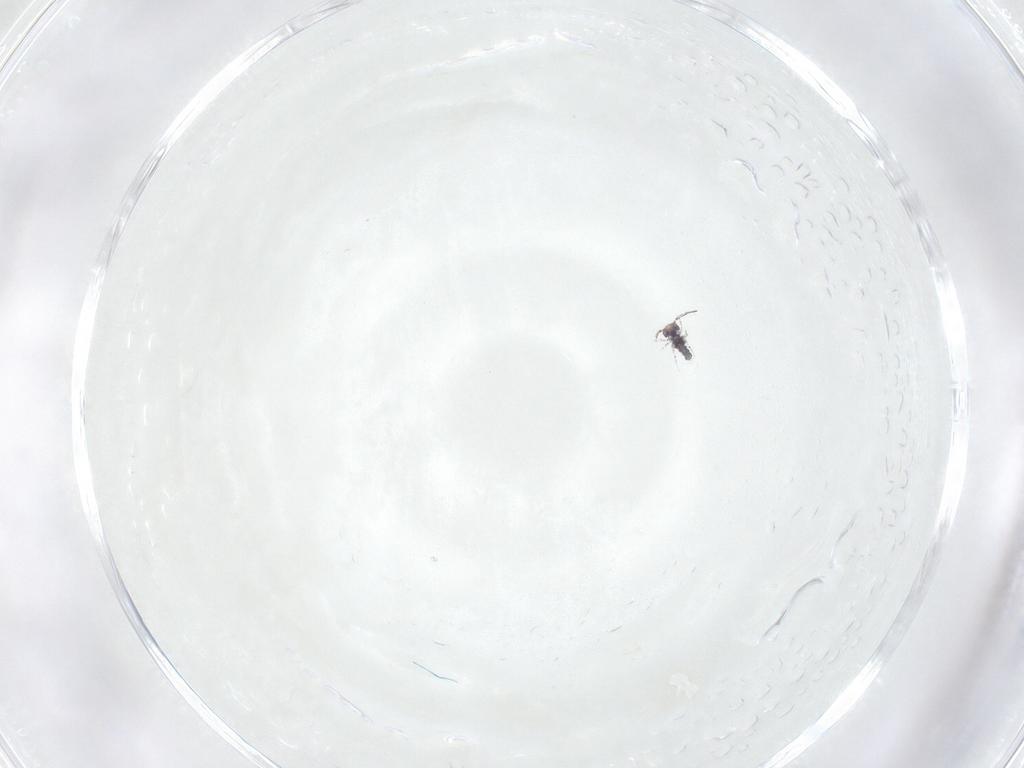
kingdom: Animalia
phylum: Arthropoda
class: Collembola
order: Symphypleona
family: Bourletiellidae
